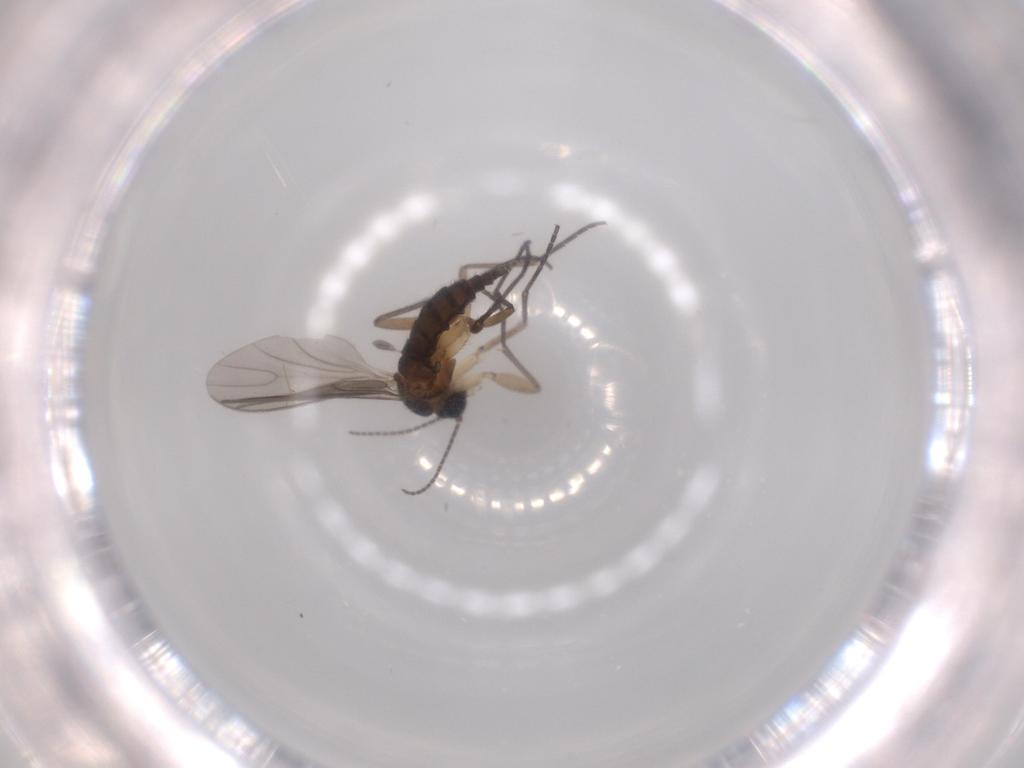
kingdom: Animalia
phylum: Arthropoda
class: Insecta
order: Diptera
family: Sciaridae
